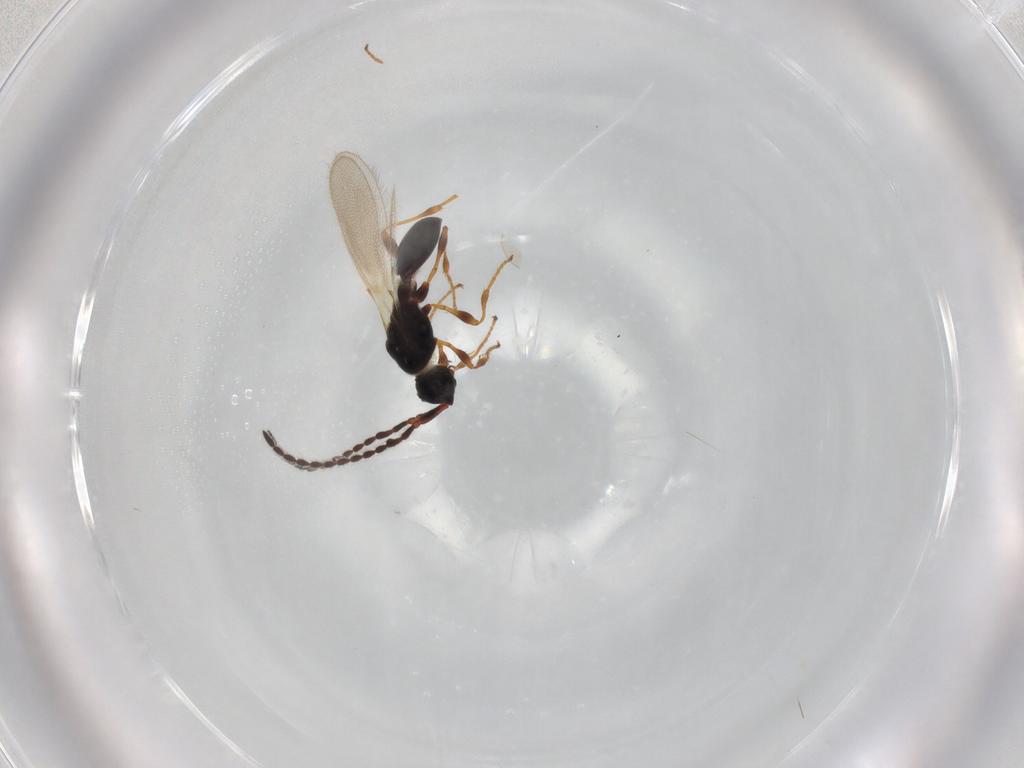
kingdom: Animalia
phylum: Arthropoda
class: Insecta
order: Hymenoptera
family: Diapriidae
